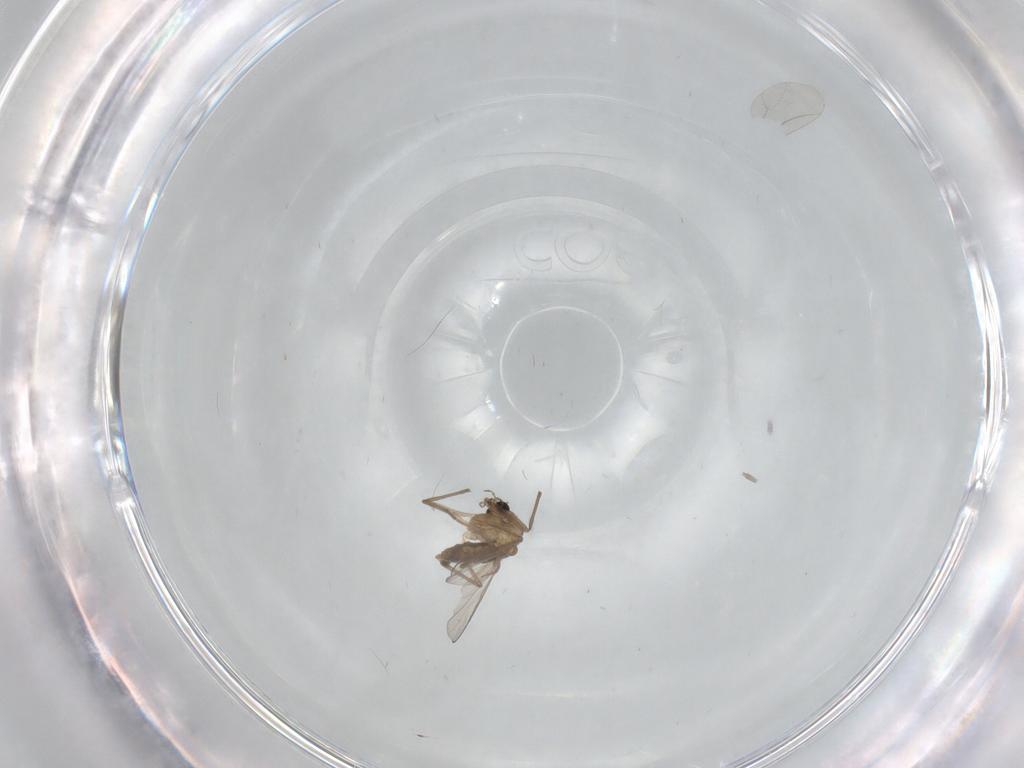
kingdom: Animalia
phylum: Arthropoda
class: Insecta
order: Diptera
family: Chironomidae
